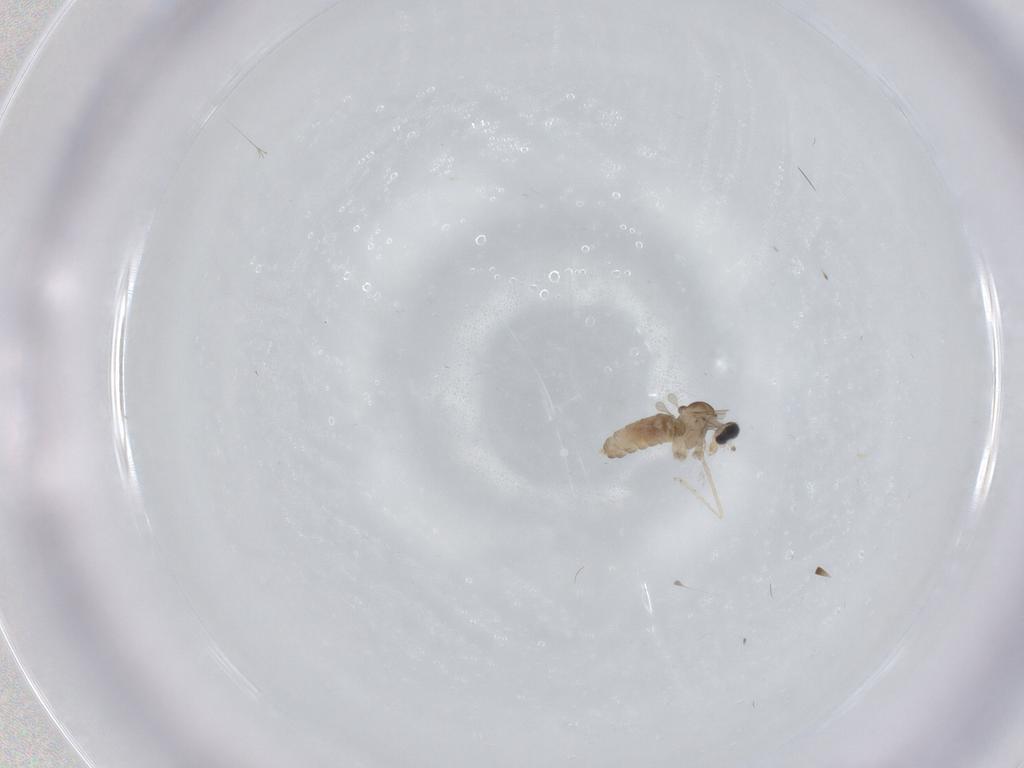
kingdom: Animalia
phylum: Arthropoda
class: Insecta
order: Diptera
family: Cecidomyiidae
